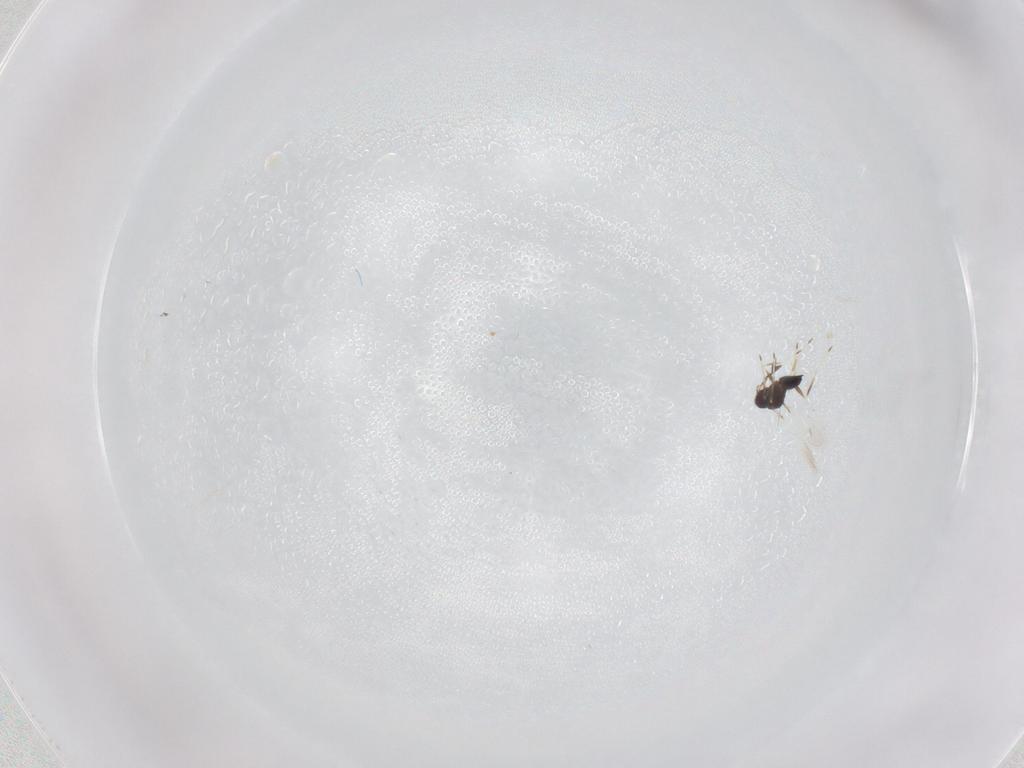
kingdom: Animalia
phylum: Arthropoda
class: Insecta
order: Hymenoptera
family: Mymaridae
